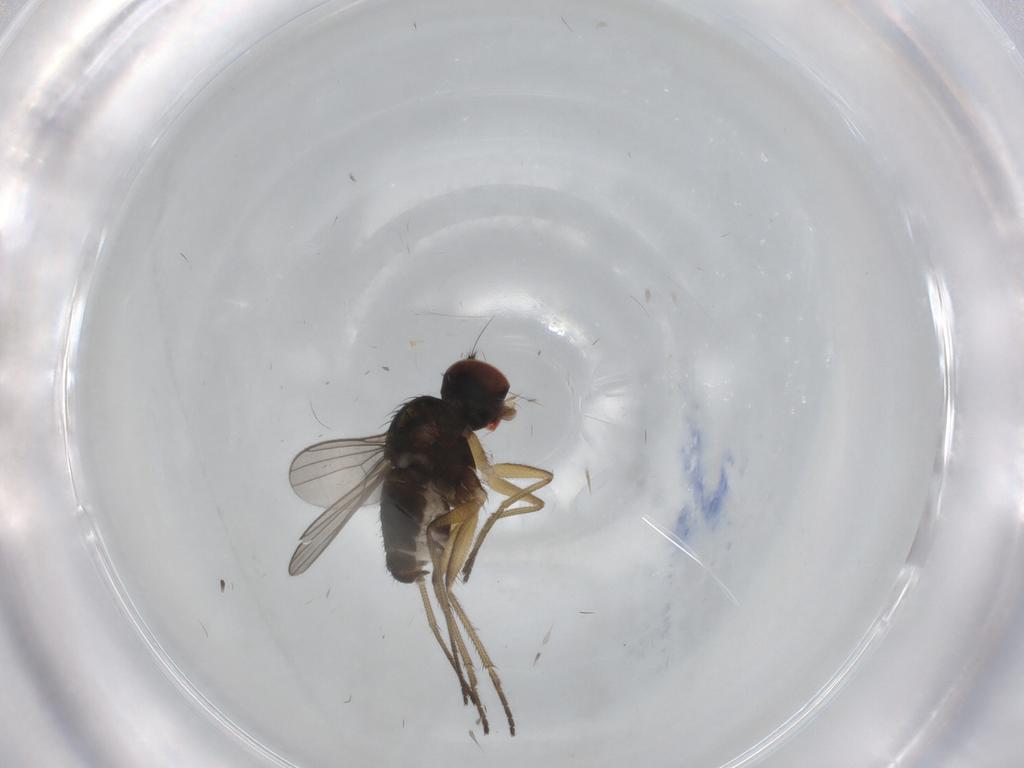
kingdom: Animalia
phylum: Arthropoda
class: Insecta
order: Diptera
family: Dolichopodidae
